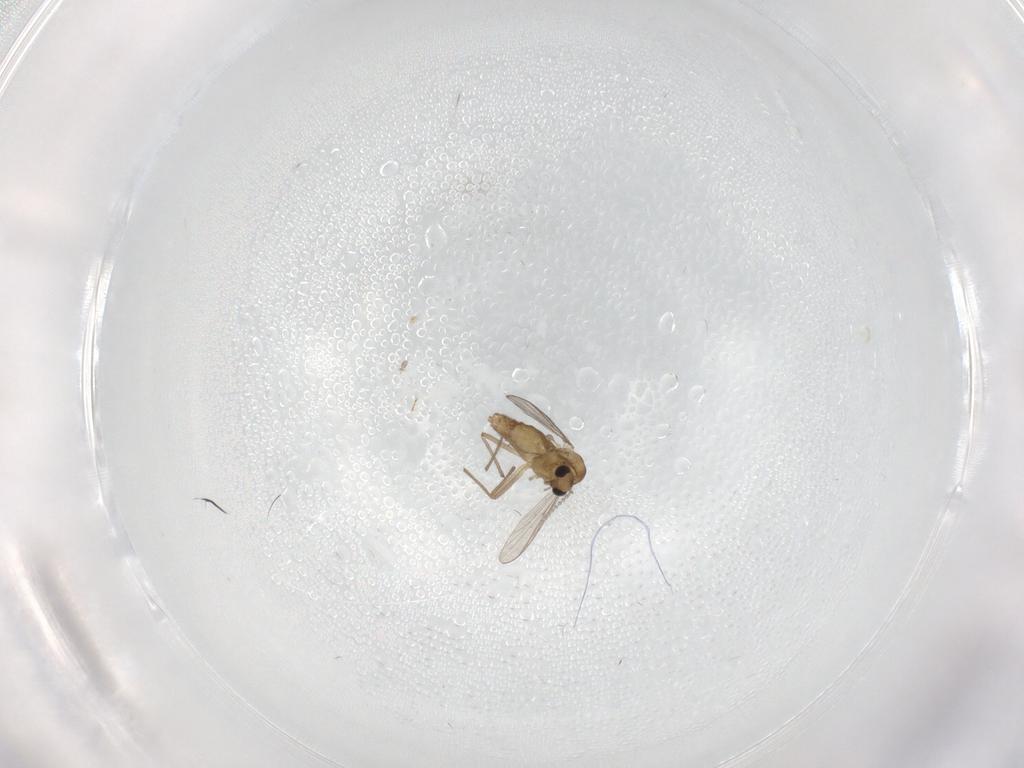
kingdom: Animalia
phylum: Arthropoda
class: Insecta
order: Diptera
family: Chironomidae
